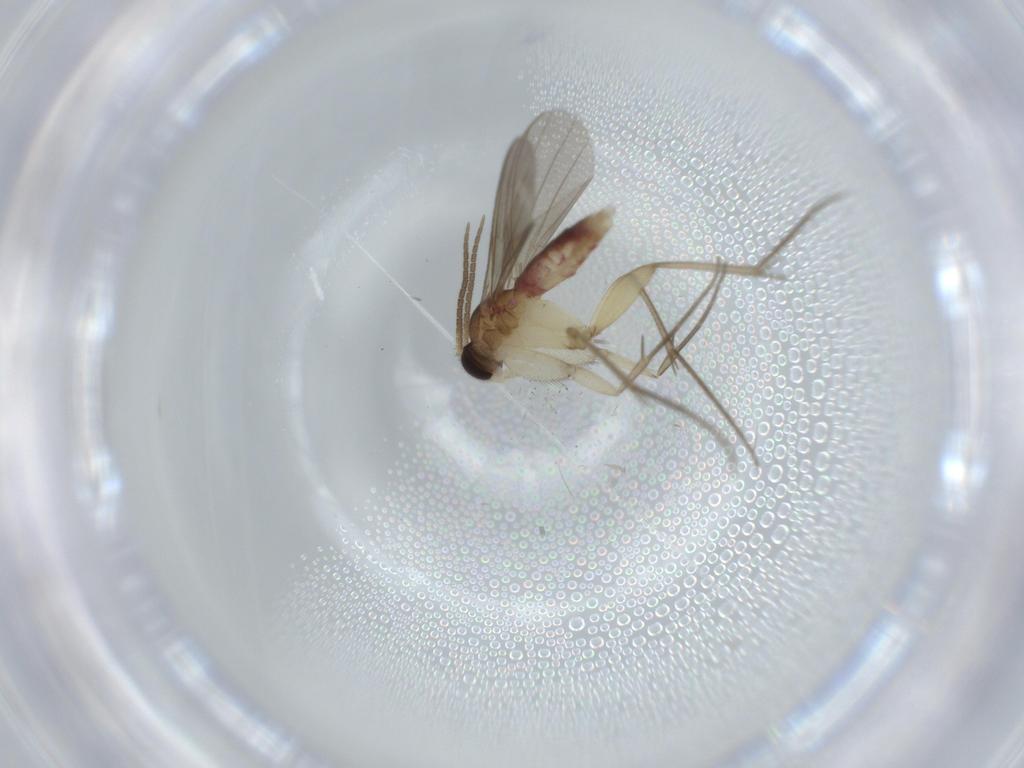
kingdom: Animalia
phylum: Arthropoda
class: Insecta
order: Diptera
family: Mycetophilidae
